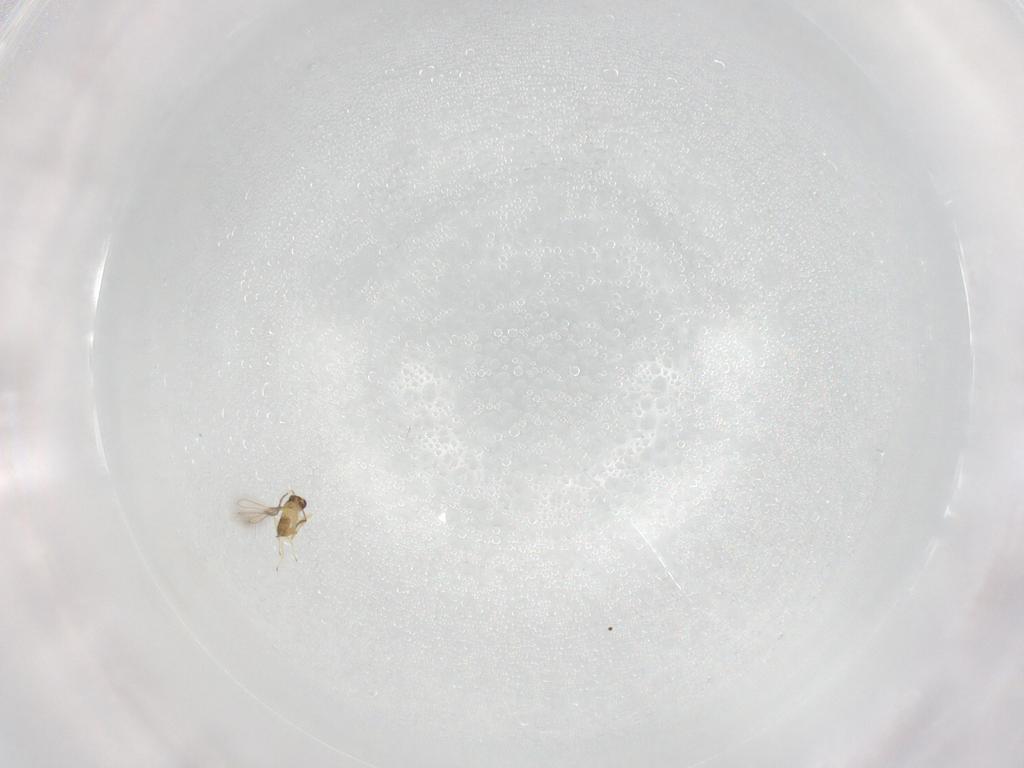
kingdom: Animalia
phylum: Arthropoda
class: Insecta
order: Hymenoptera
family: Mymaridae
